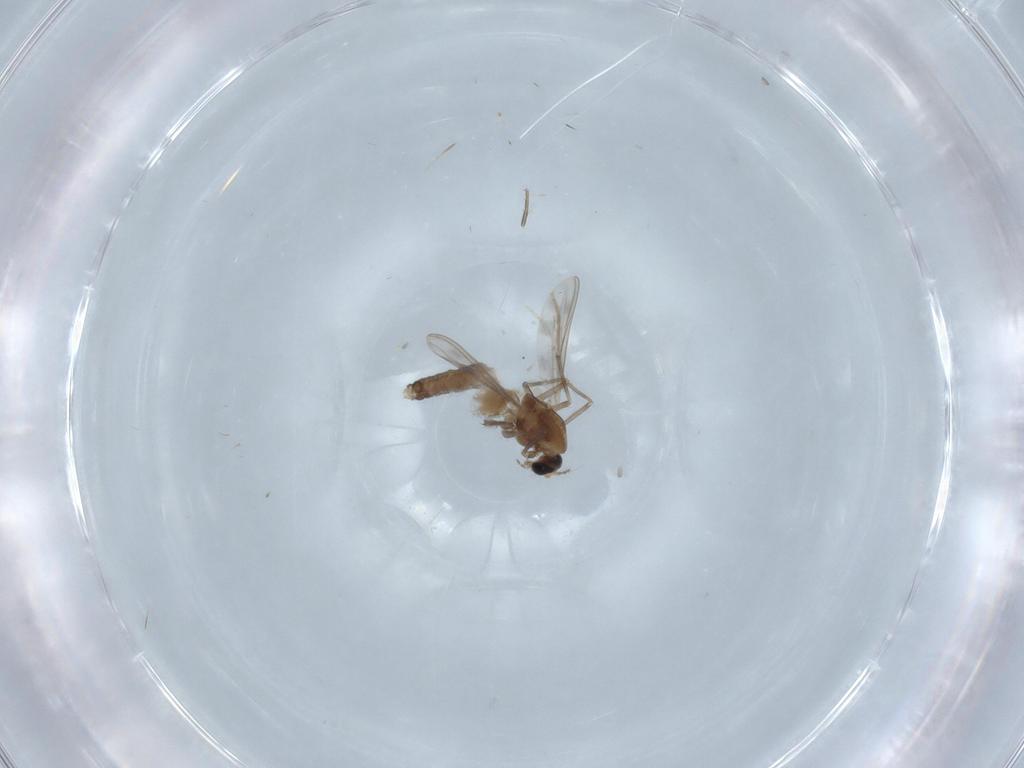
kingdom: Animalia
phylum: Arthropoda
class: Insecta
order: Diptera
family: Chironomidae
